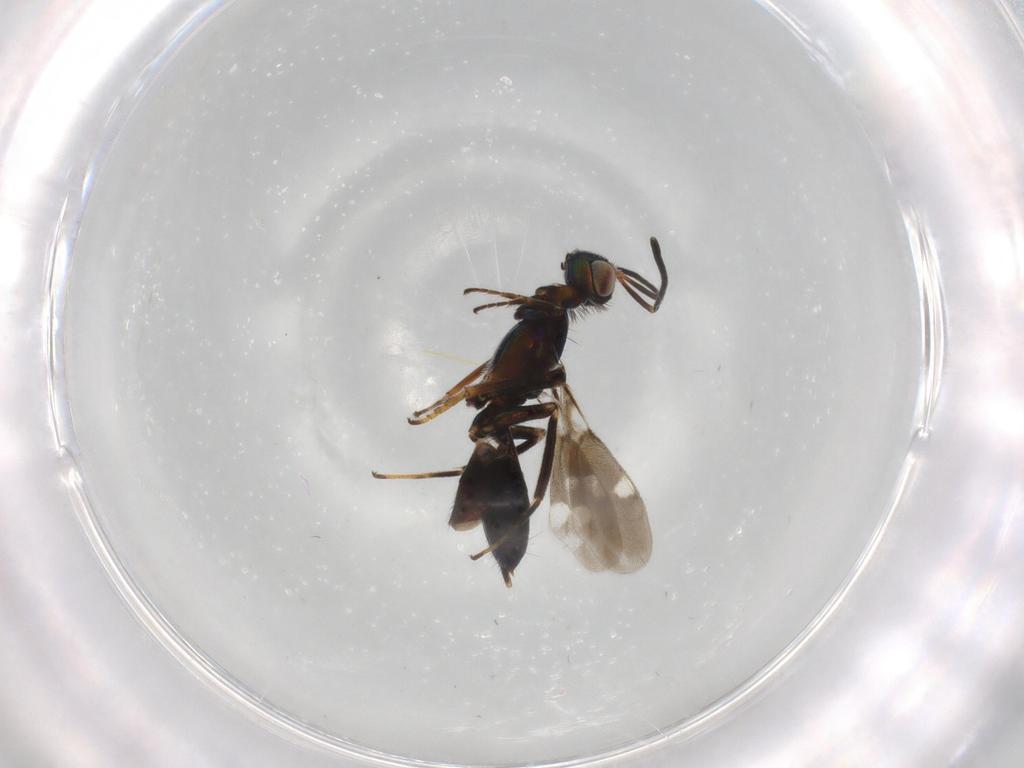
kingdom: Animalia
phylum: Arthropoda
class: Insecta
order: Hymenoptera
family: Eupelmidae
